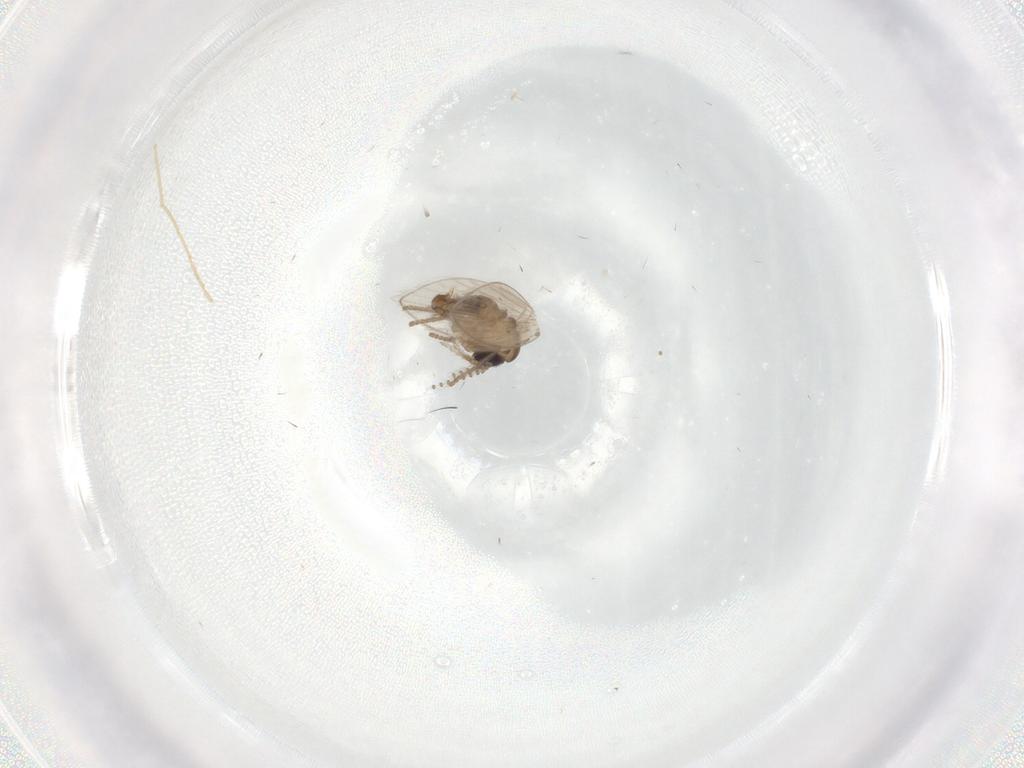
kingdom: Animalia
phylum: Arthropoda
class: Insecta
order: Diptera
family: Psychodidae
